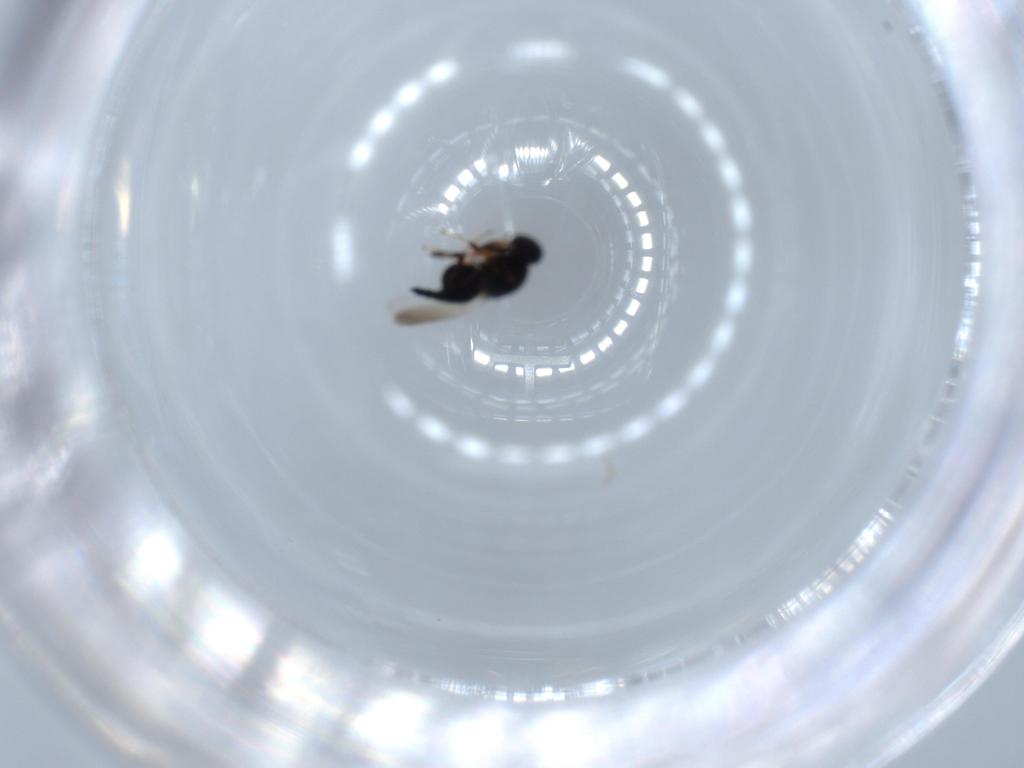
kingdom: Animalia
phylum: Arthropoda
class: Insecta
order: Hymenoptera
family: Platygastridae
